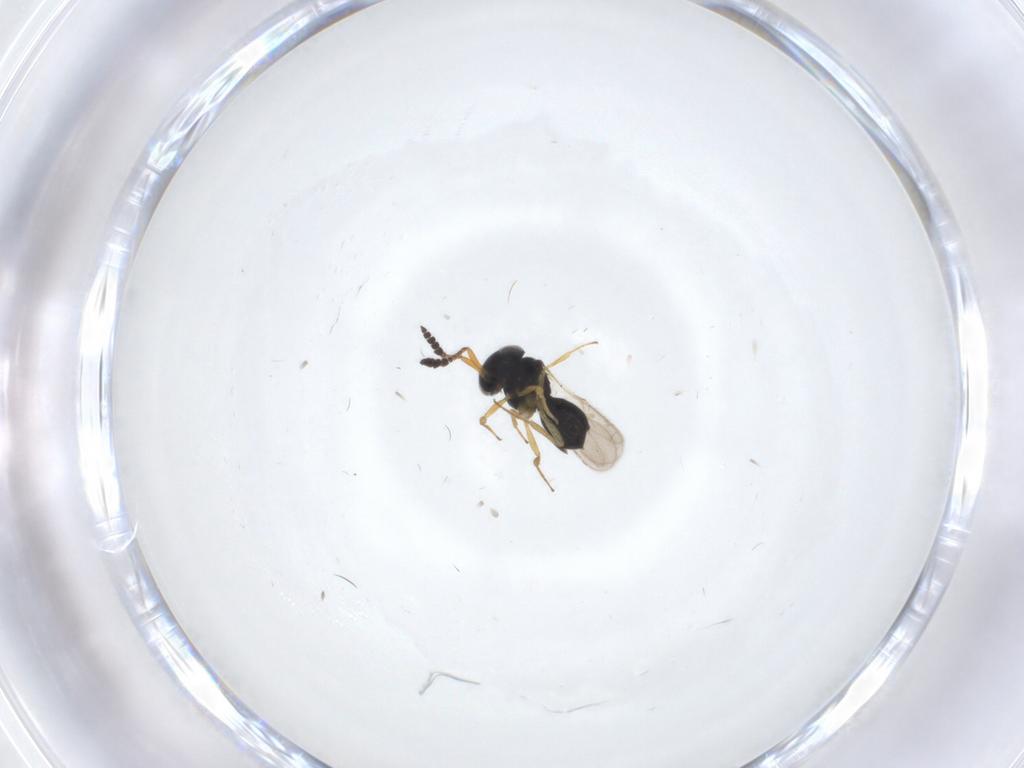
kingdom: Animalia
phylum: Arthropoda
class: Insecta
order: Hymenoptera
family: Scelionidae
